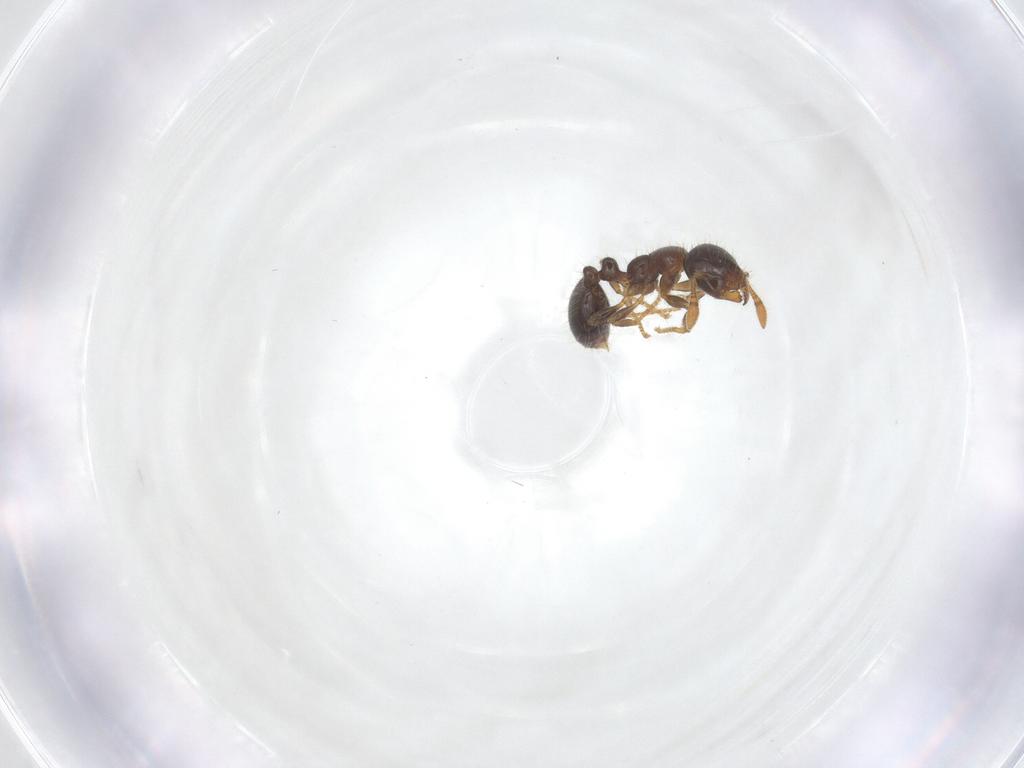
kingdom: Animalia
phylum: Arthropoda
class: Insecta
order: Hymenoptera
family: Formicidae
